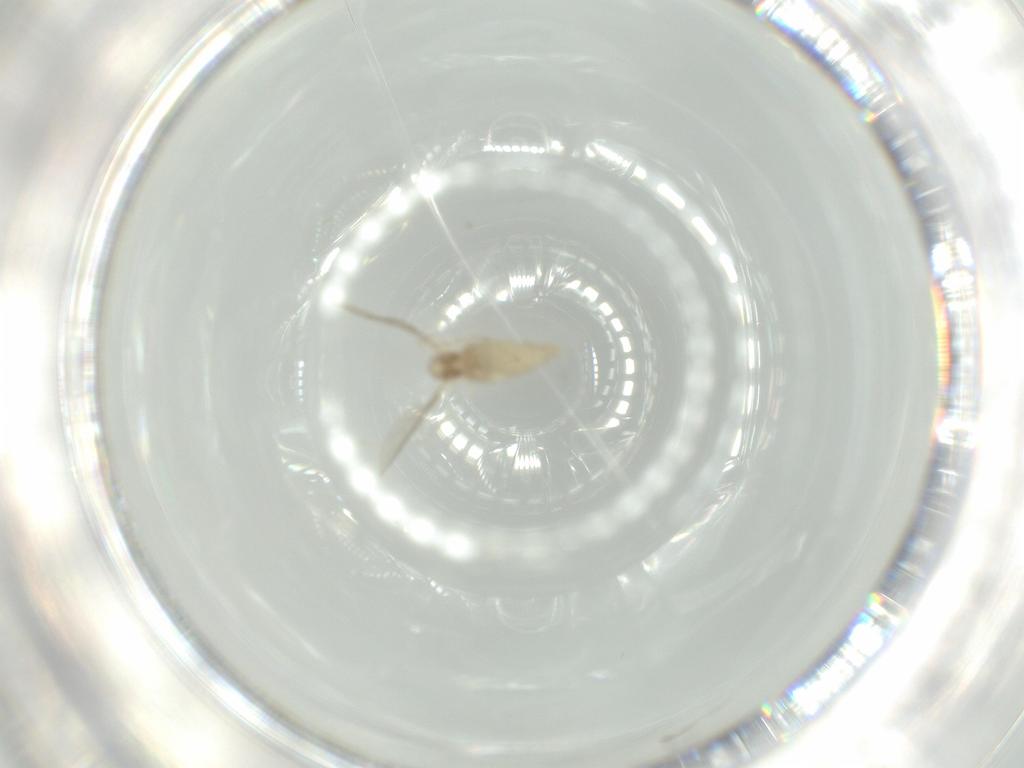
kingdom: Animalia
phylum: Arthropoda
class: Insecta
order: Diptera
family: Cecidomyiidae
